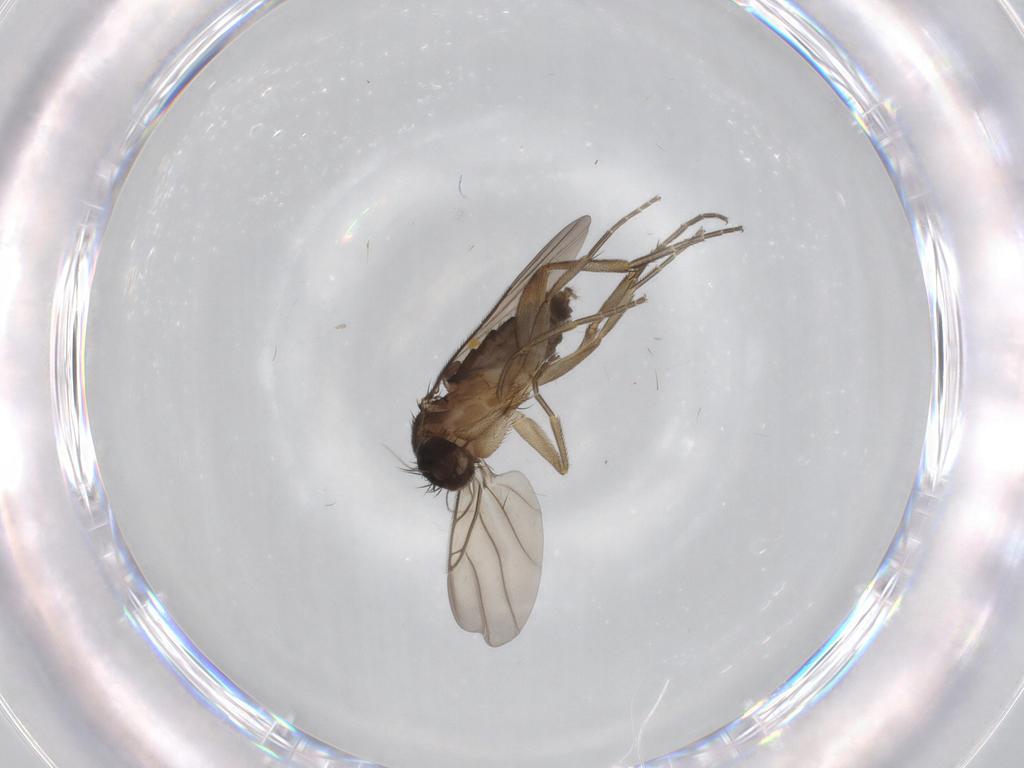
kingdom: Animalia
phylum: Arthropoda
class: Insecta
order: Diptera
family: Phoridae
